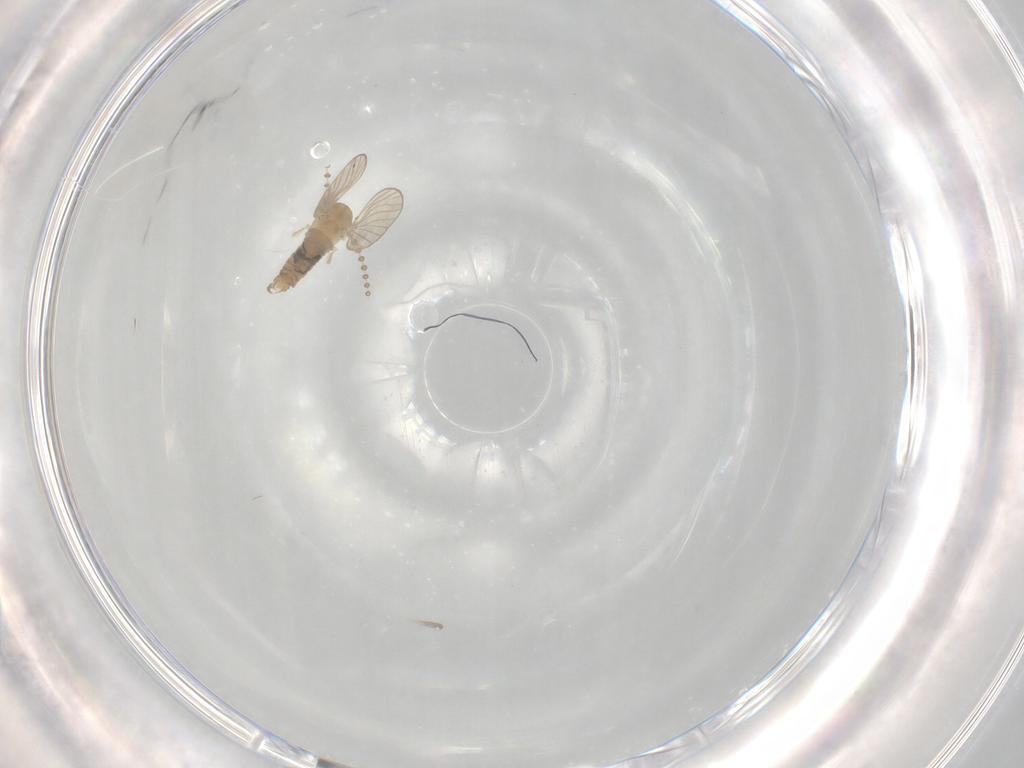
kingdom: Animalia
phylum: Arthropoda
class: Insecta
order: Diptera
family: Psychodidae
